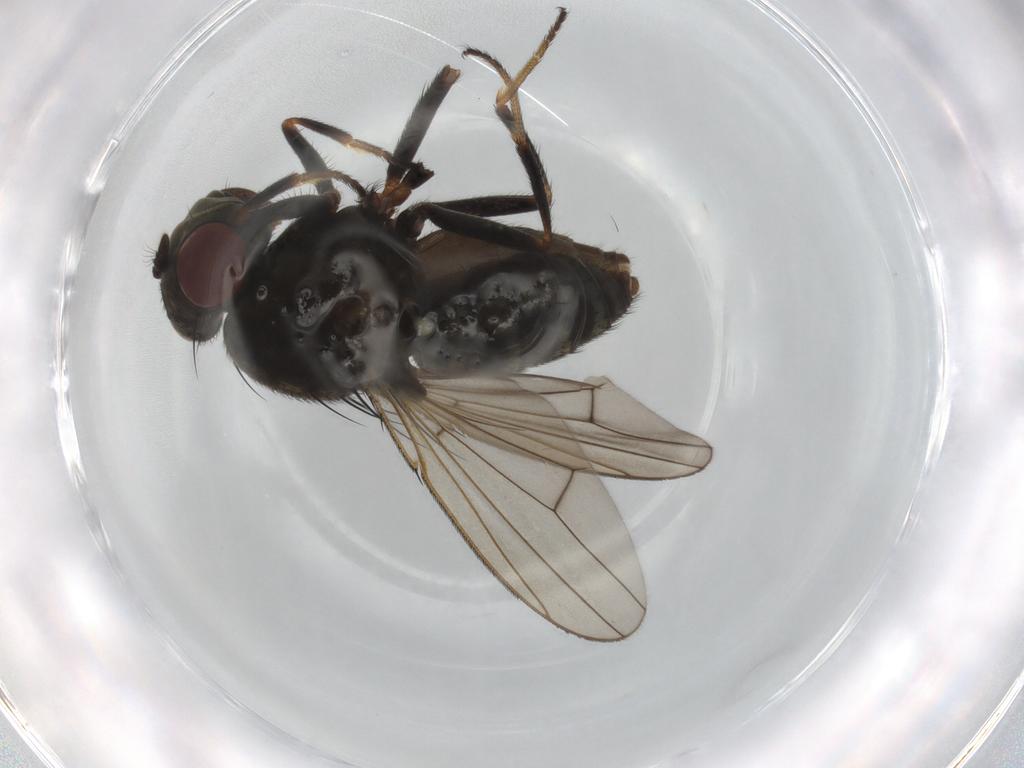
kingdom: Animalia
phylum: Arthropoda
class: Insecta
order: Diptera
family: Ephydridae
